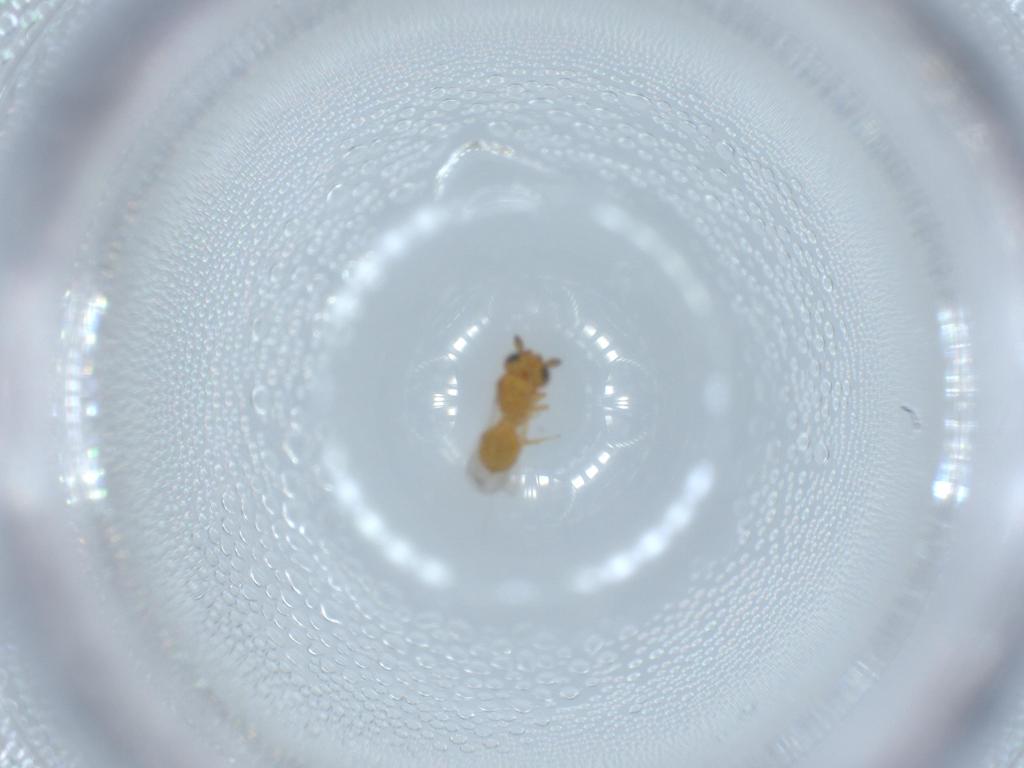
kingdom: Animalia
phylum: Arthropoda
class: Insecta
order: Hymenoptera
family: Scelionidae
